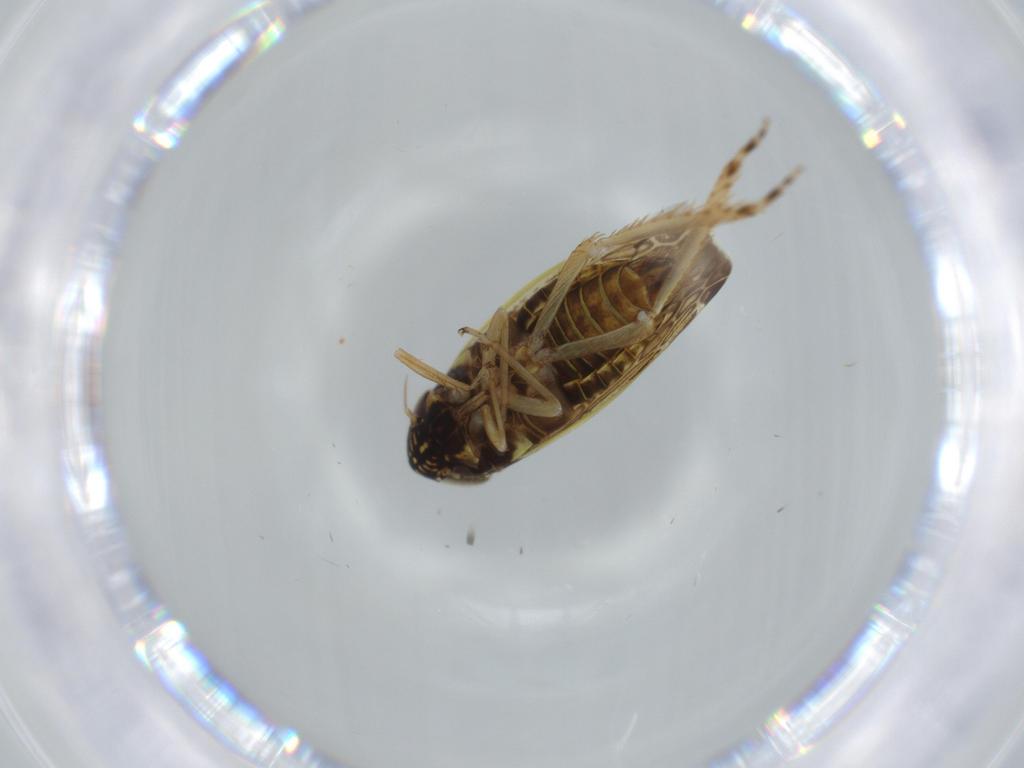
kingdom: Animalia
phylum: Arthropoda
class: Insecta
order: Hemiptera
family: Cicadellidae
